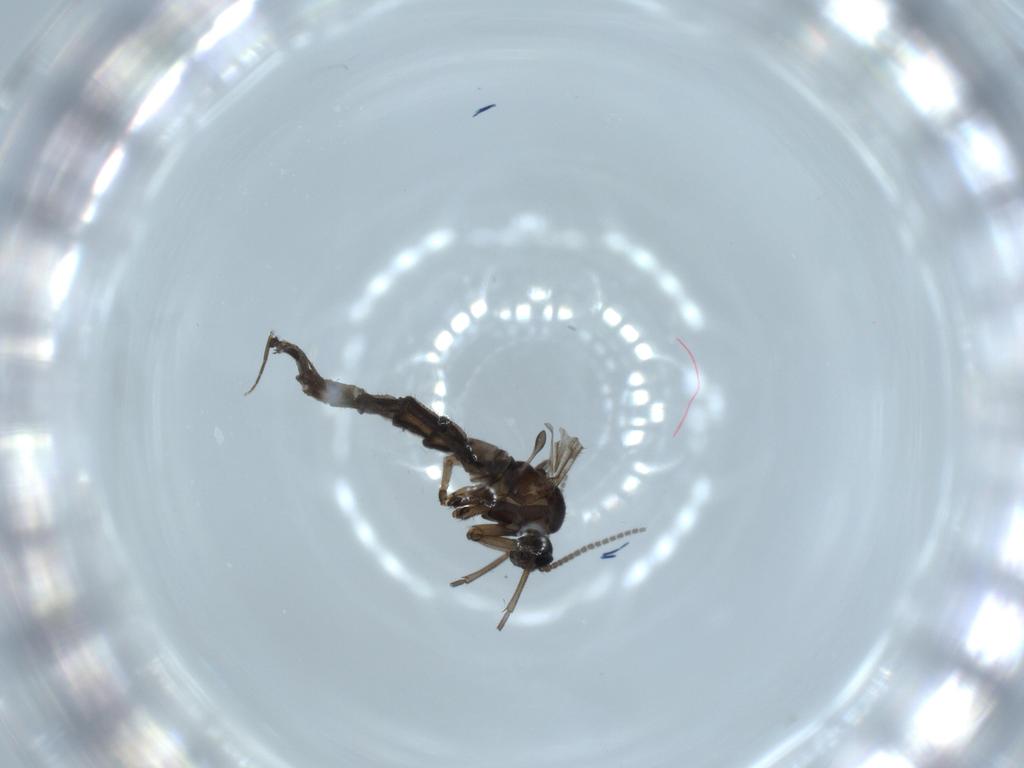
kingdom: Animalia
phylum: Arthropoda
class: Insecta
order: Diptera
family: Sciaridae
